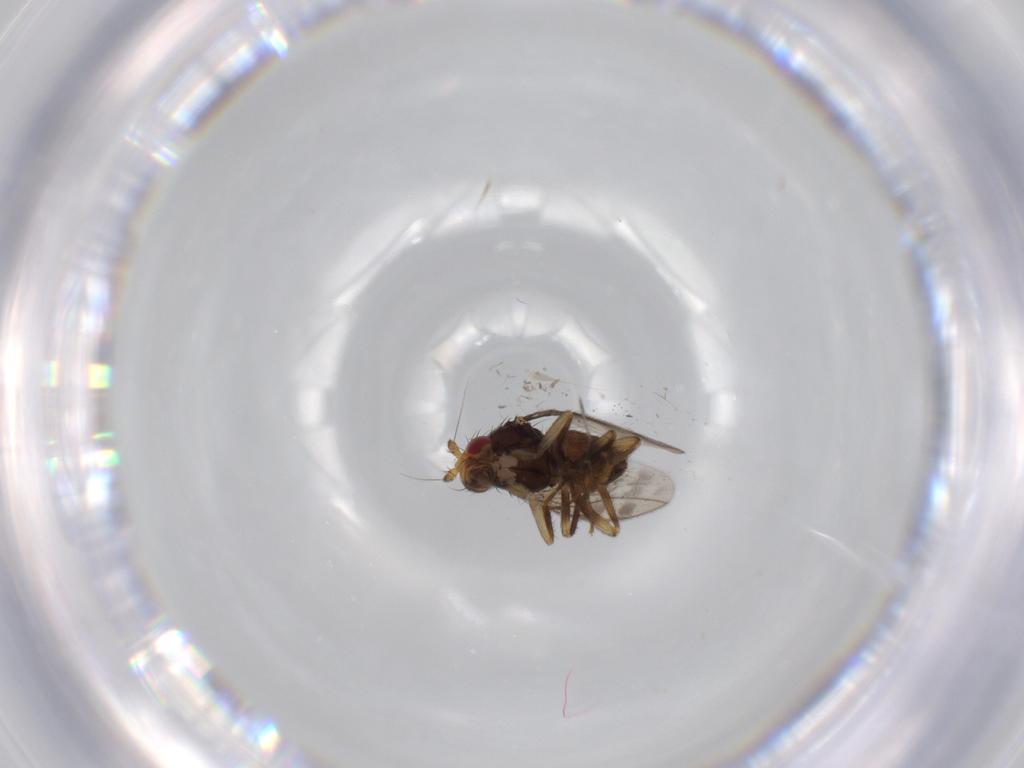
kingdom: Animalia
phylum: Arthropoda
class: Insecta
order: Diptera
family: Sphaeroceridae
